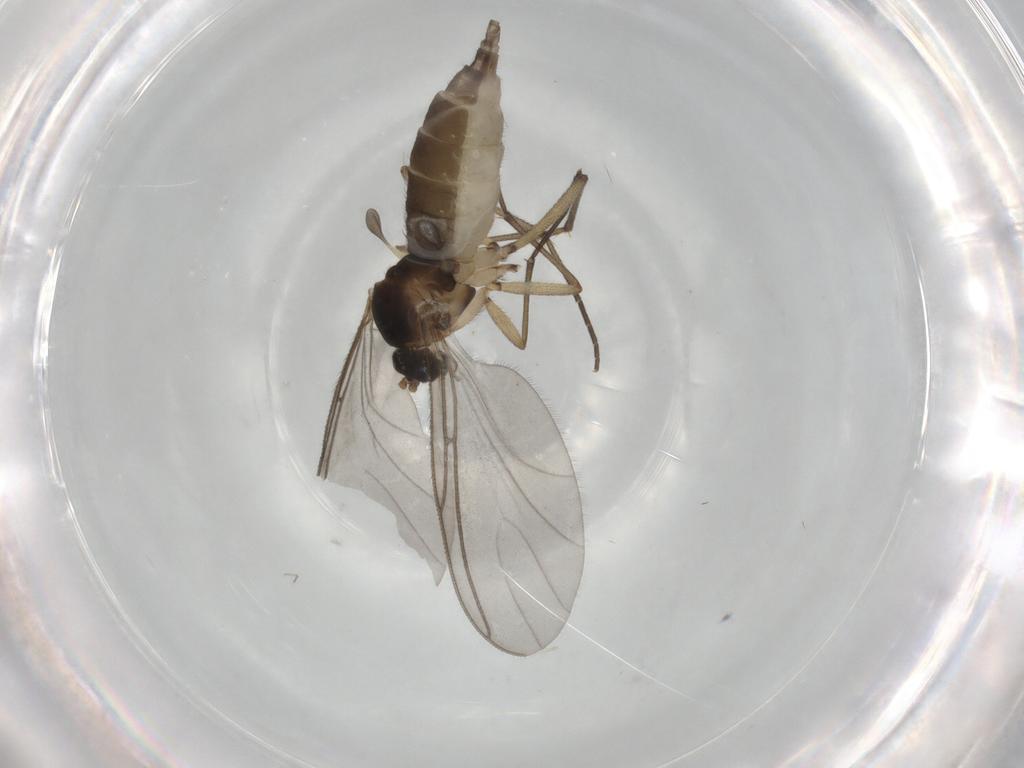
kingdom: Animalia
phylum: Arthropoda
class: Insecta
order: Diptera
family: Sciaridae
